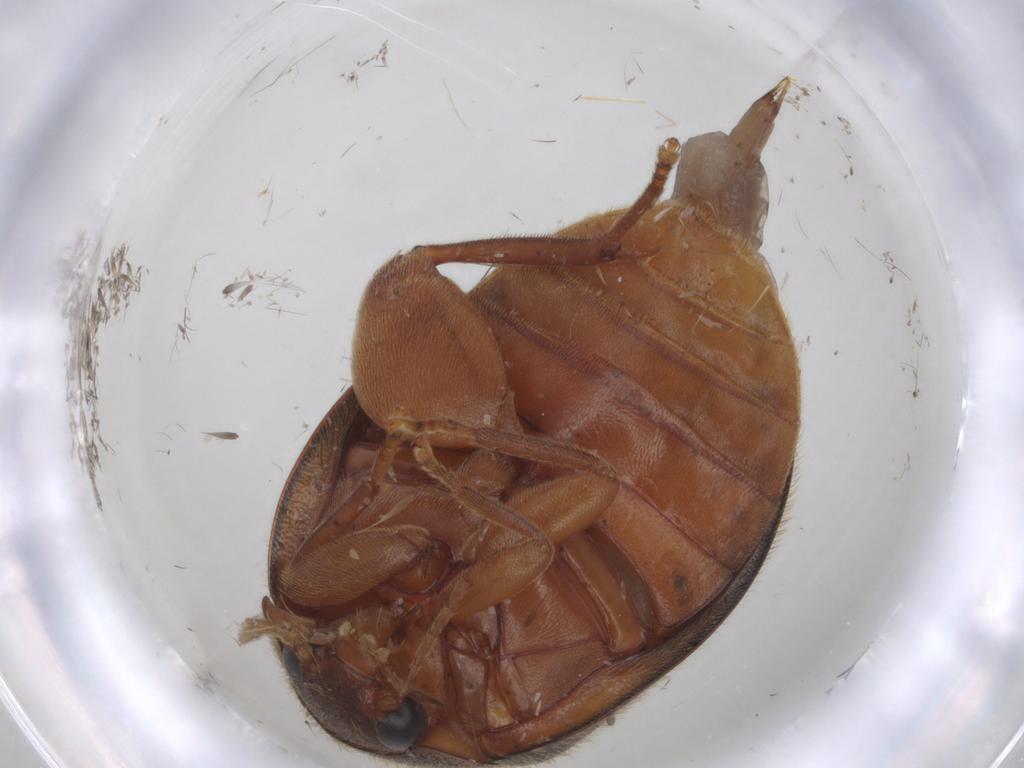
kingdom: Animalia
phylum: Arthropoda
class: Insecta
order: Coleoptera
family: Scirtidae
